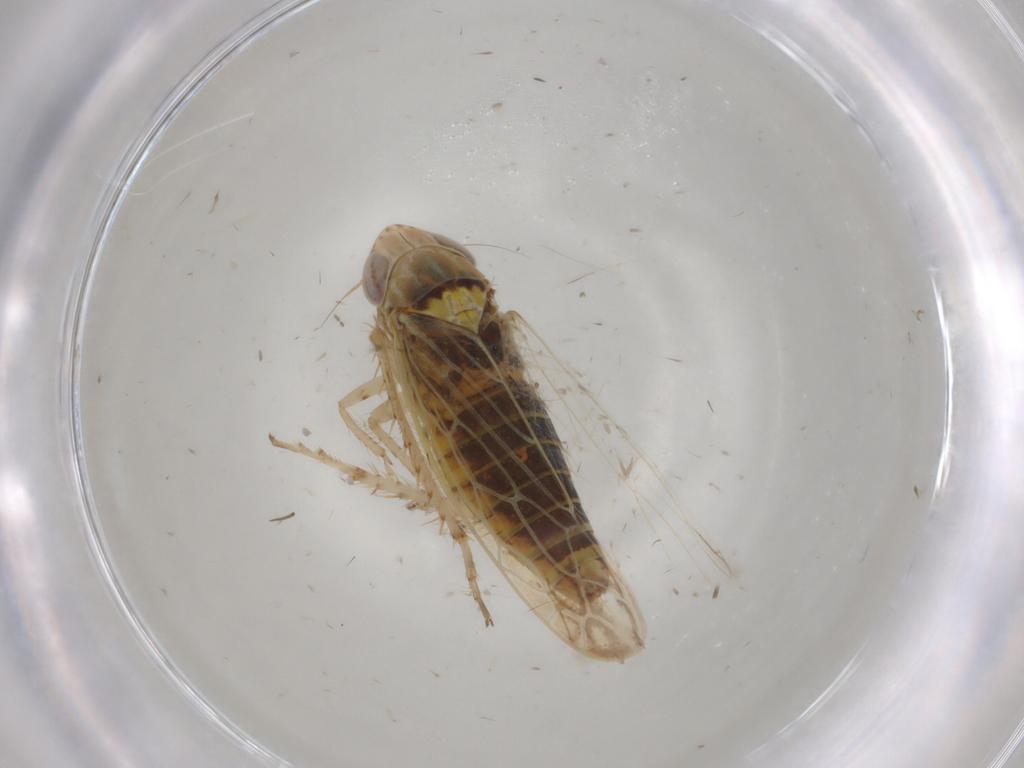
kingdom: Animalia
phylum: Arthropoda
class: Insecta
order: Hemiptera
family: Cicadellidae
